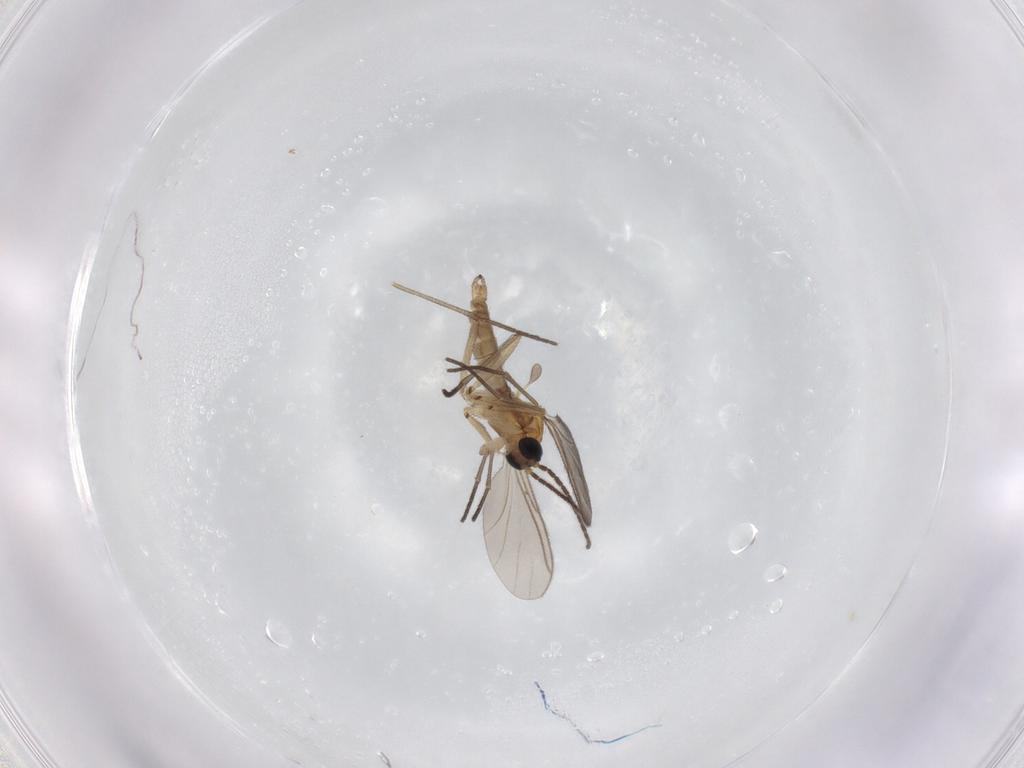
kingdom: Animalia
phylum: Arthropoda
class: Insecta
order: Diptera
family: Sciaridae
